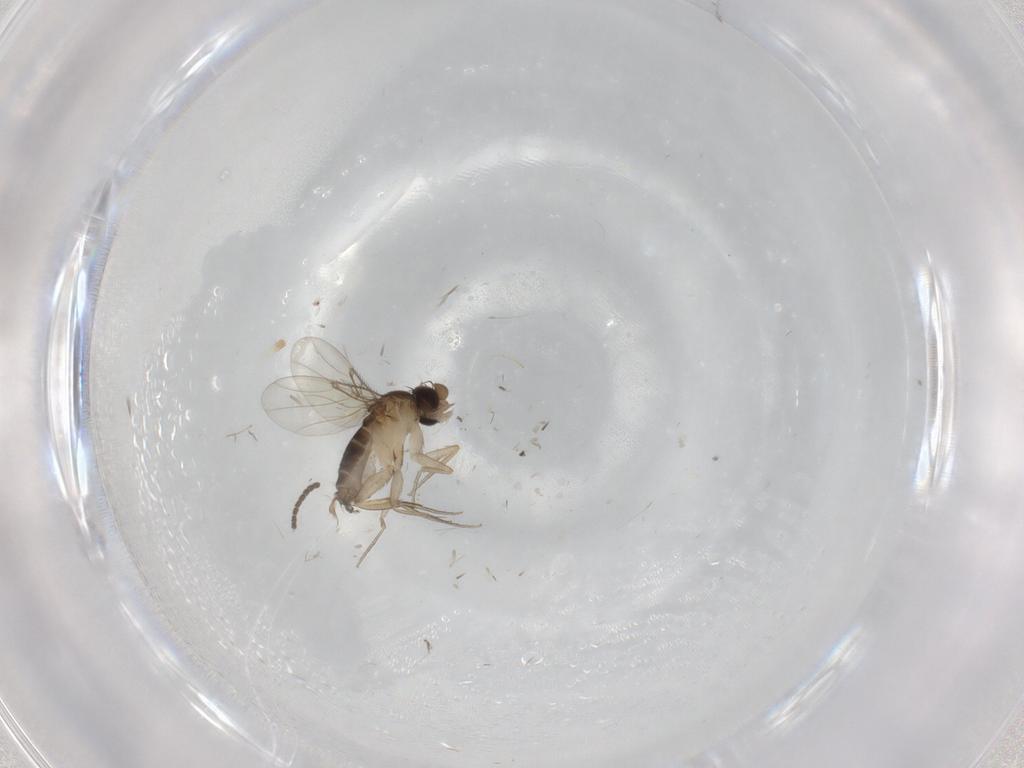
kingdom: Animalia
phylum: Arthropoda
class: Insecta
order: Diptera
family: Sciaridae
